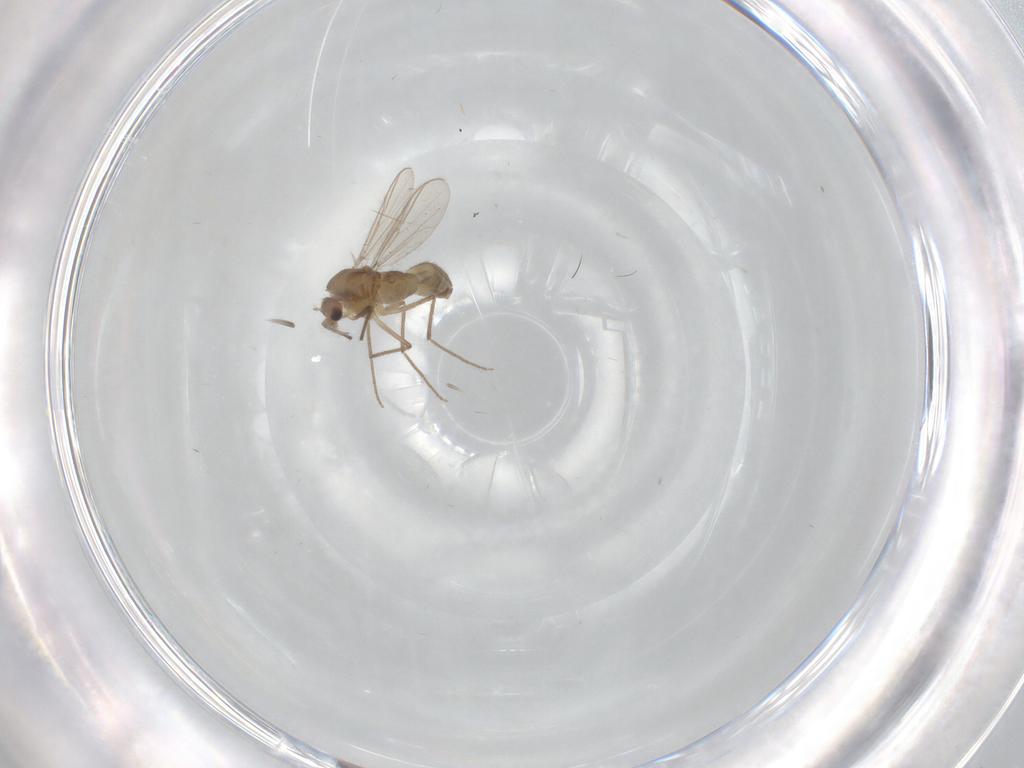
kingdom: Animalia
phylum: Arthropoda
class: Insecta
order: Diptera
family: Chironomidae
